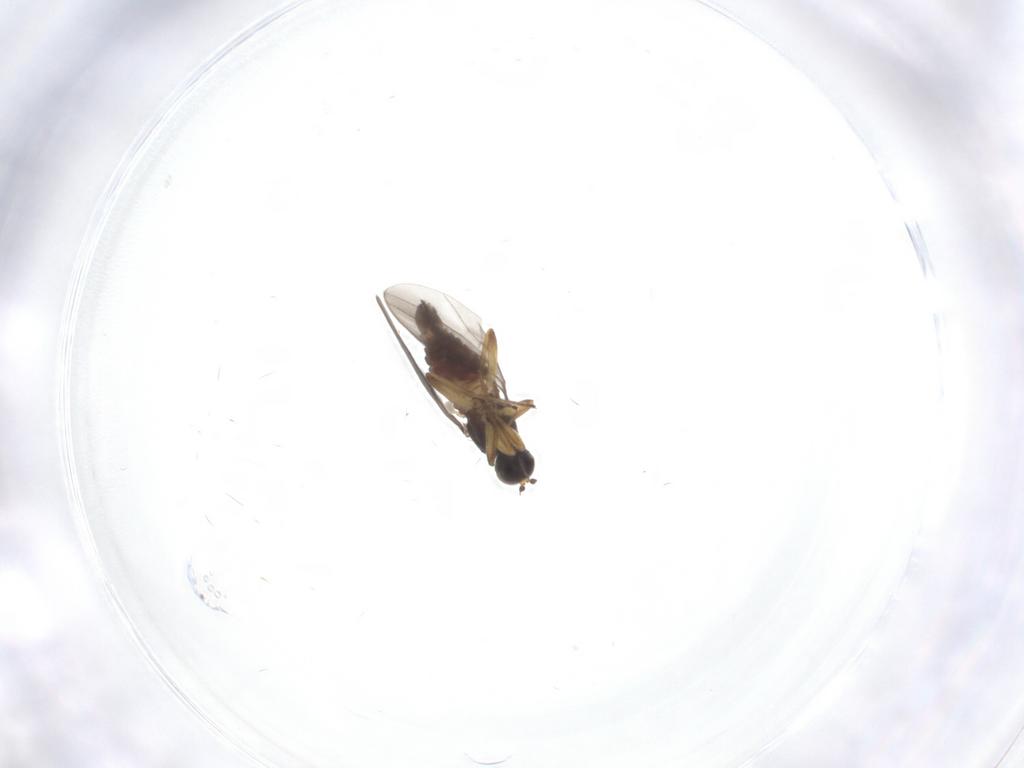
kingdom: Animalia
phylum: Arthropoda
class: Insecta
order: Diptera
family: Hybotidae
